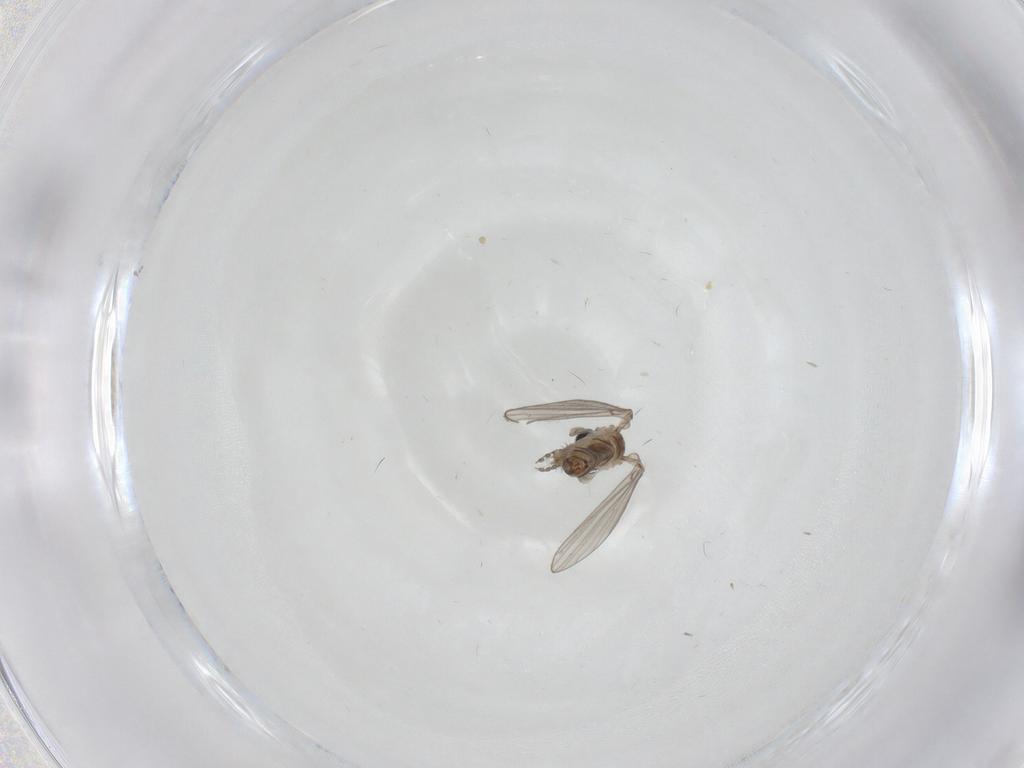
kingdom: Animalia
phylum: Arthropoda
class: Insecta
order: Diptera
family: Psychodidae
